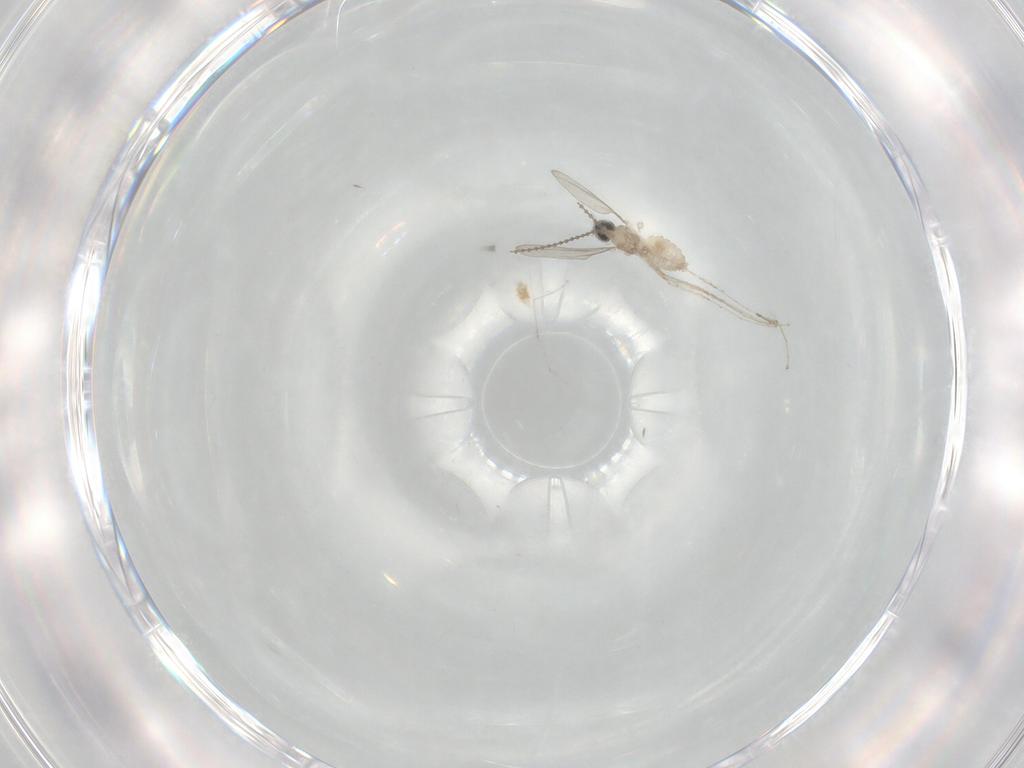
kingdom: Animalia
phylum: Arthropoda
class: Insecta
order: Diptera
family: Cecidomyiidae
